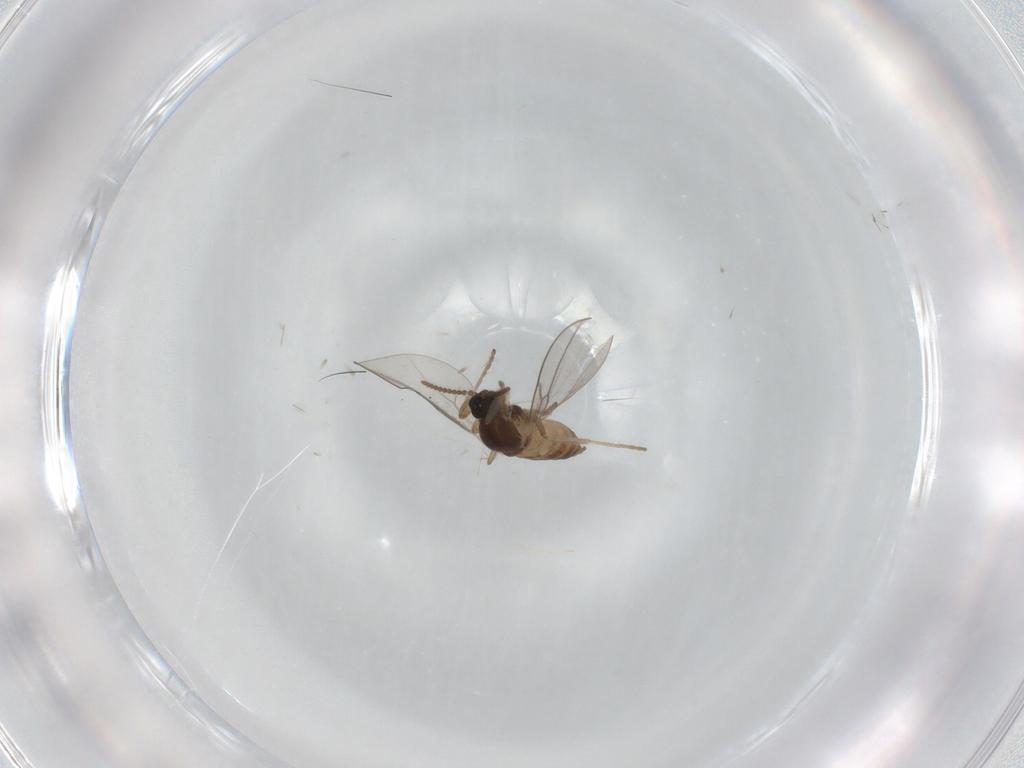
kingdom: Animalia
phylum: Arthropoda
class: Insecta
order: Diptera
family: Cecidomyiidae
